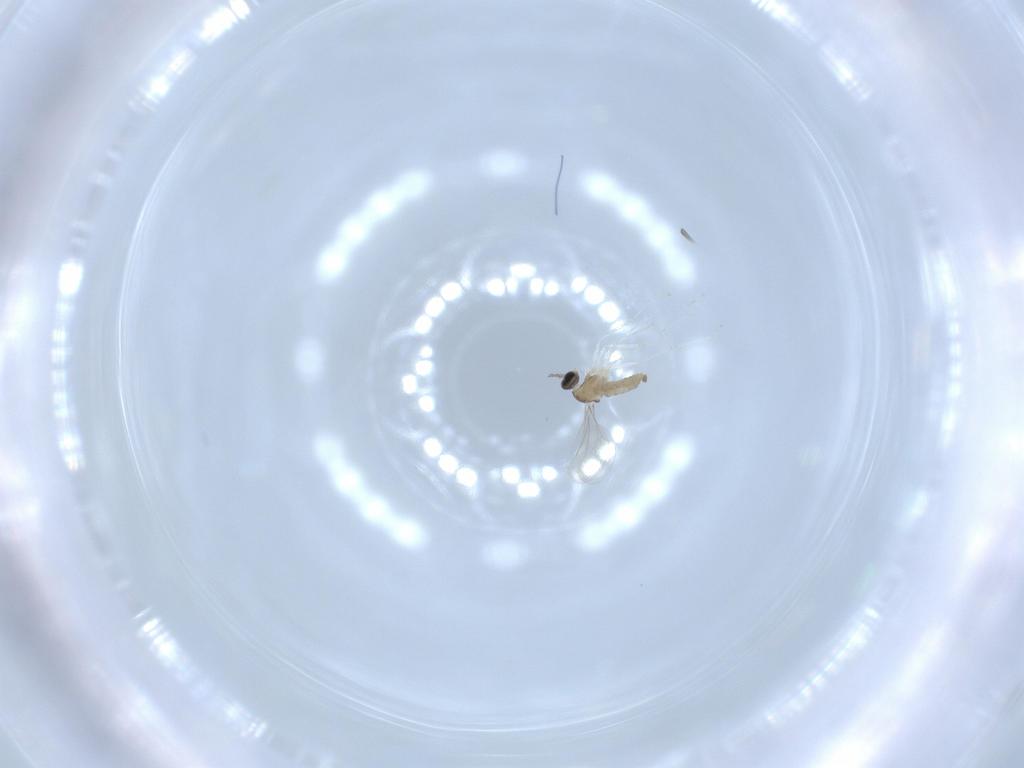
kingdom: Animalia
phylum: Arthropoda
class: Insecta
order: Diptera
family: Cecidomyiidae
